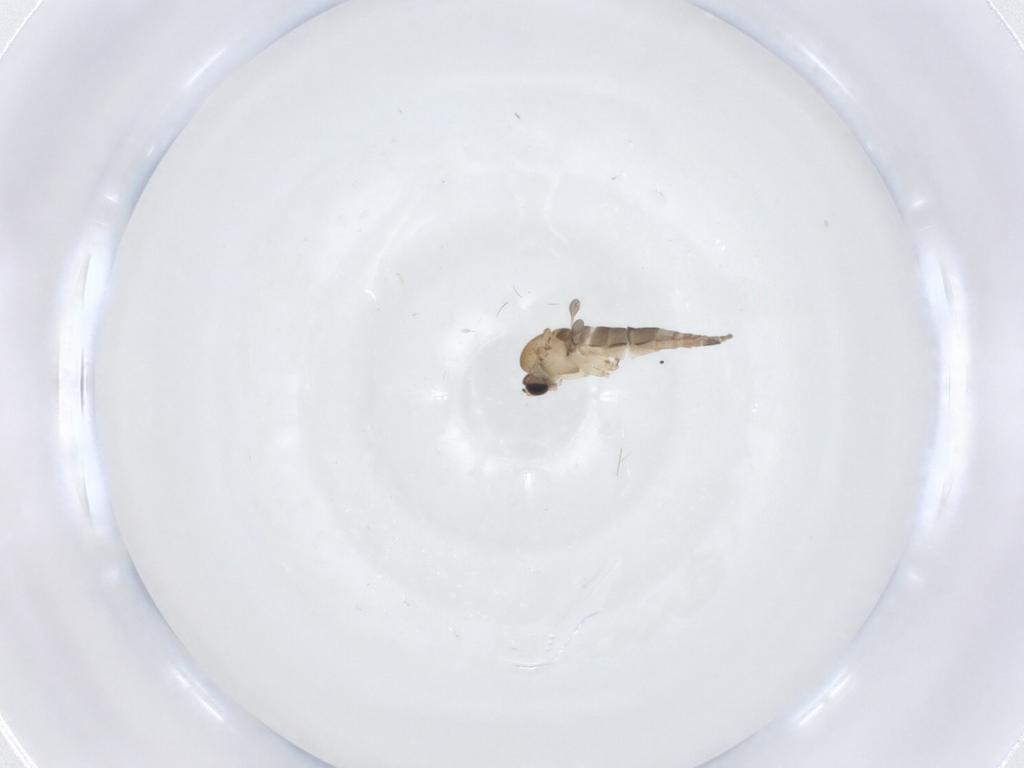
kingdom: Animalia
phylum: Arthropoda
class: Insecta
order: Diptera
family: Sciaridae
